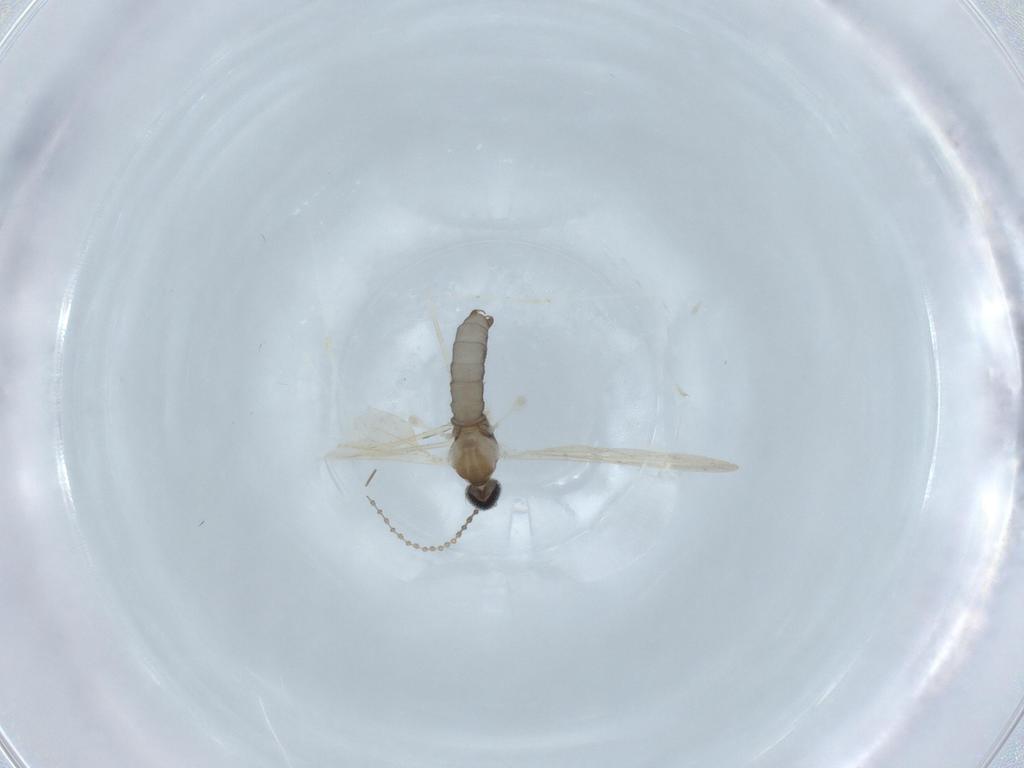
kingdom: Animalia
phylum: Arthropoda
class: Insecta
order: Diptera
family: Cecidomyiidae
